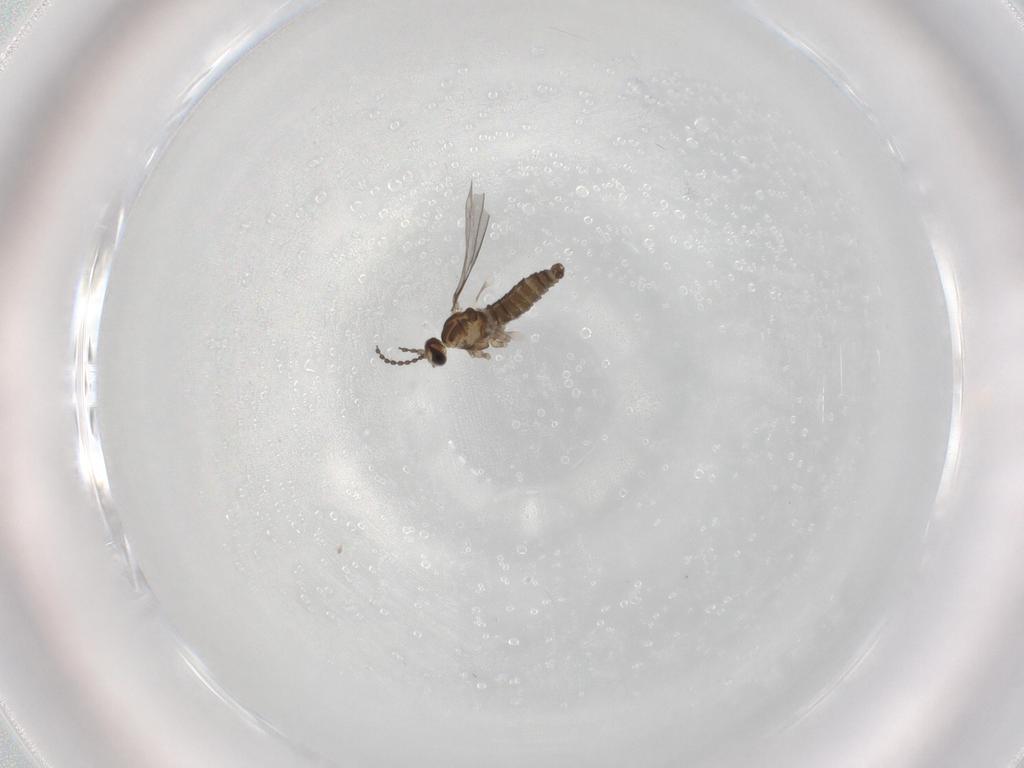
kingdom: Animalia
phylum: Arthropoda
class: Insecta
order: Diptera
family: Cecidomyiidae
